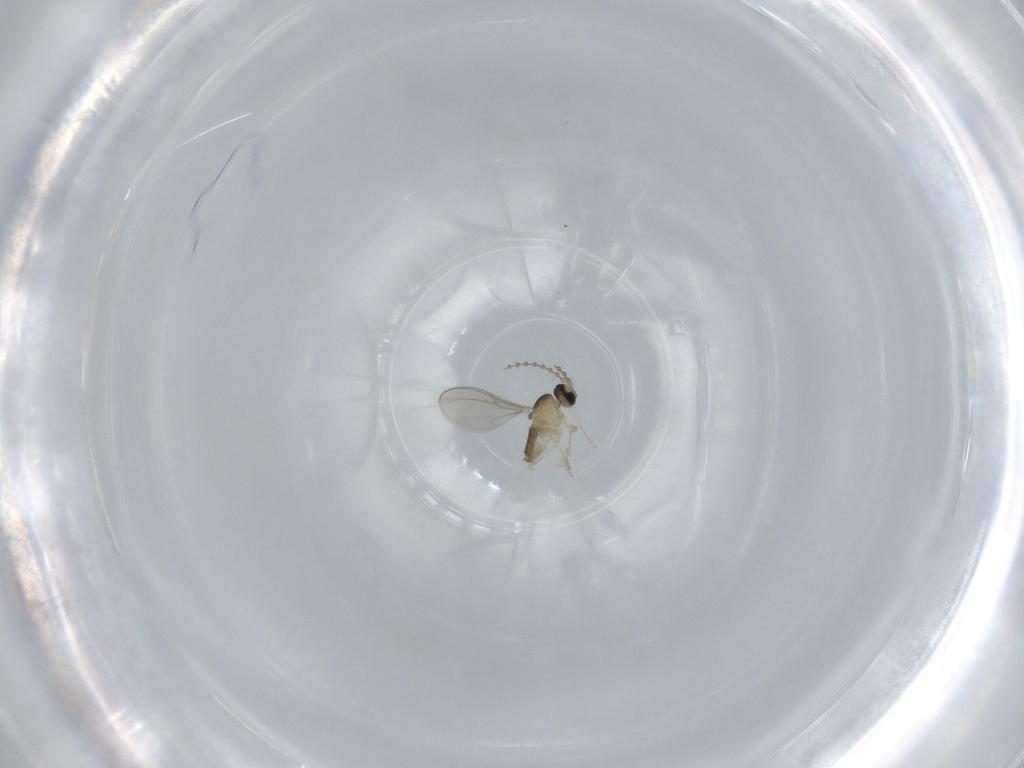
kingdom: Animalia
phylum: Arthropoda
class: Insecta
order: Diptera
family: Cecidomyiidae
